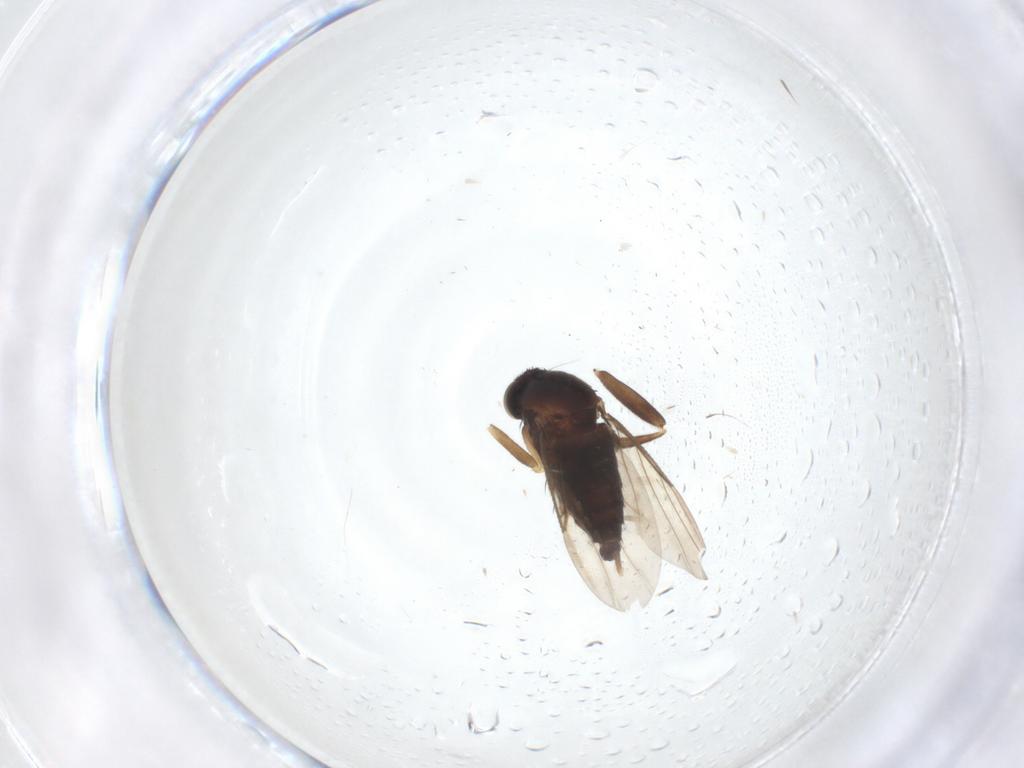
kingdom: Animalia
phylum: Arthropoda
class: Insecta
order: Diptera
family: Phoridae
